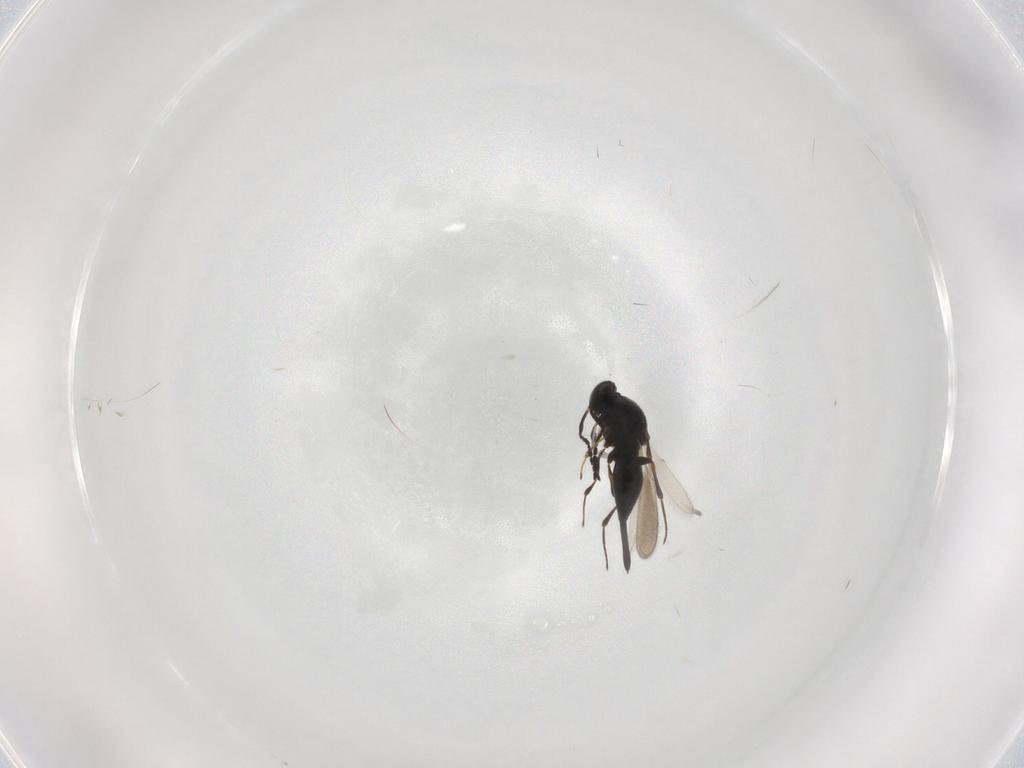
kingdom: Animalia
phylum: Arthropoda
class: Insecta
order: Hymenoptera
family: Platygastridae
